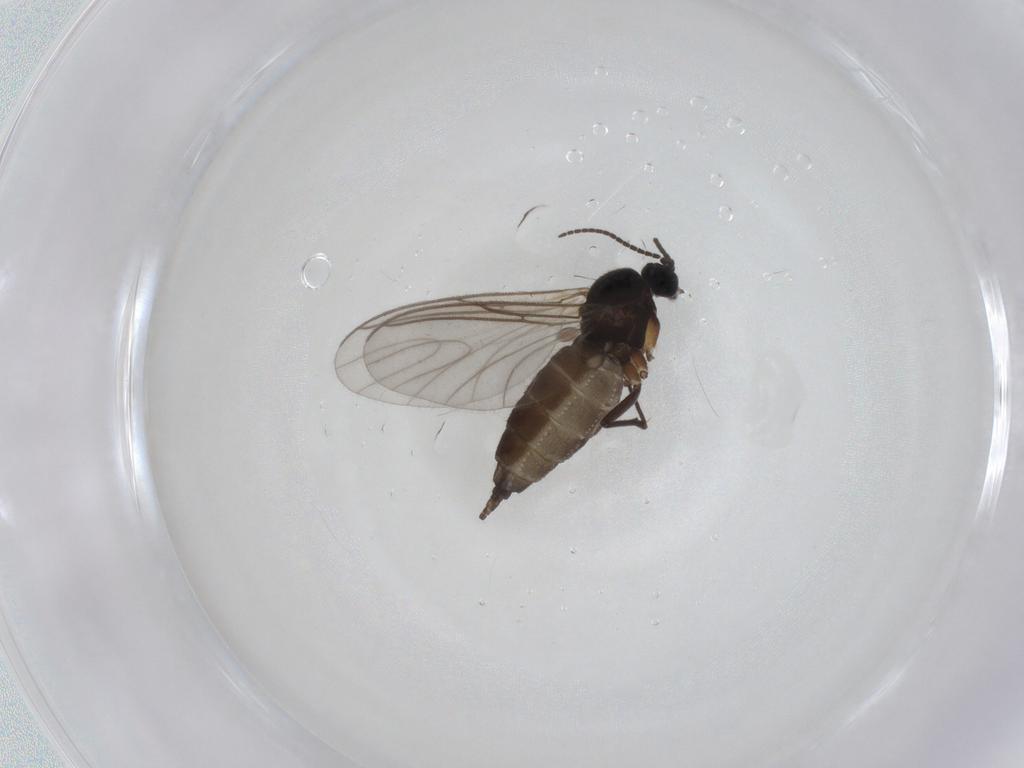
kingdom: Animalia
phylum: Arthropoda
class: Insecta
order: Diptera
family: Sciaridae
